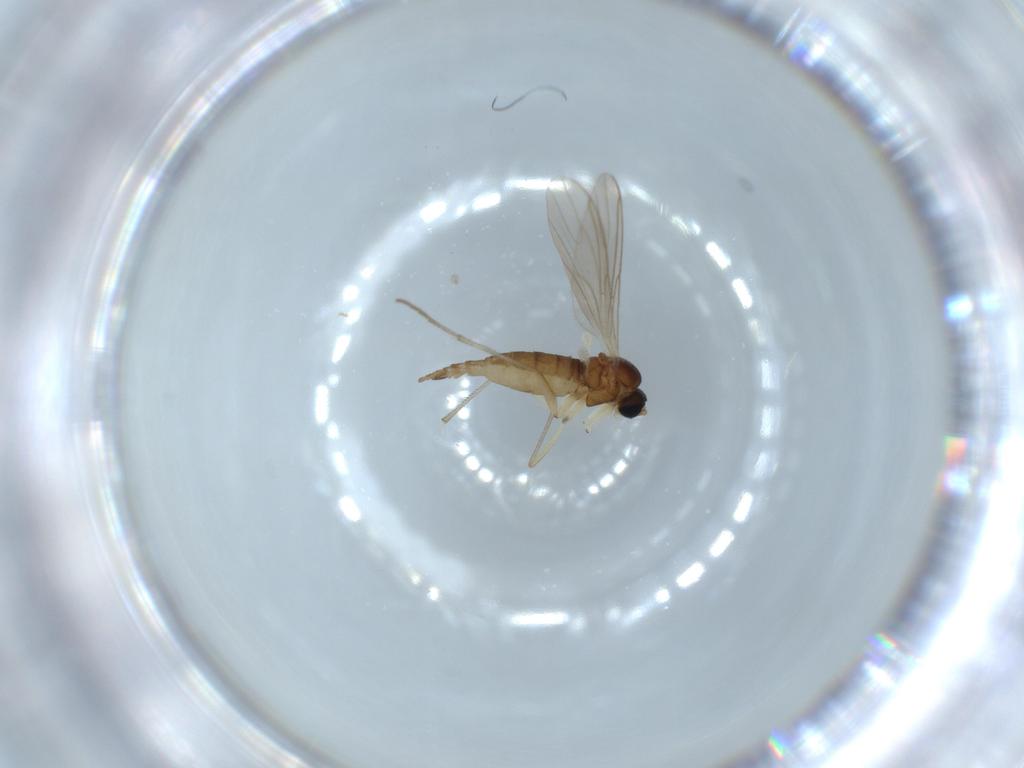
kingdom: Animalia
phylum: Arthropoda
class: Insecta
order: Diptera
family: Sciaridae
